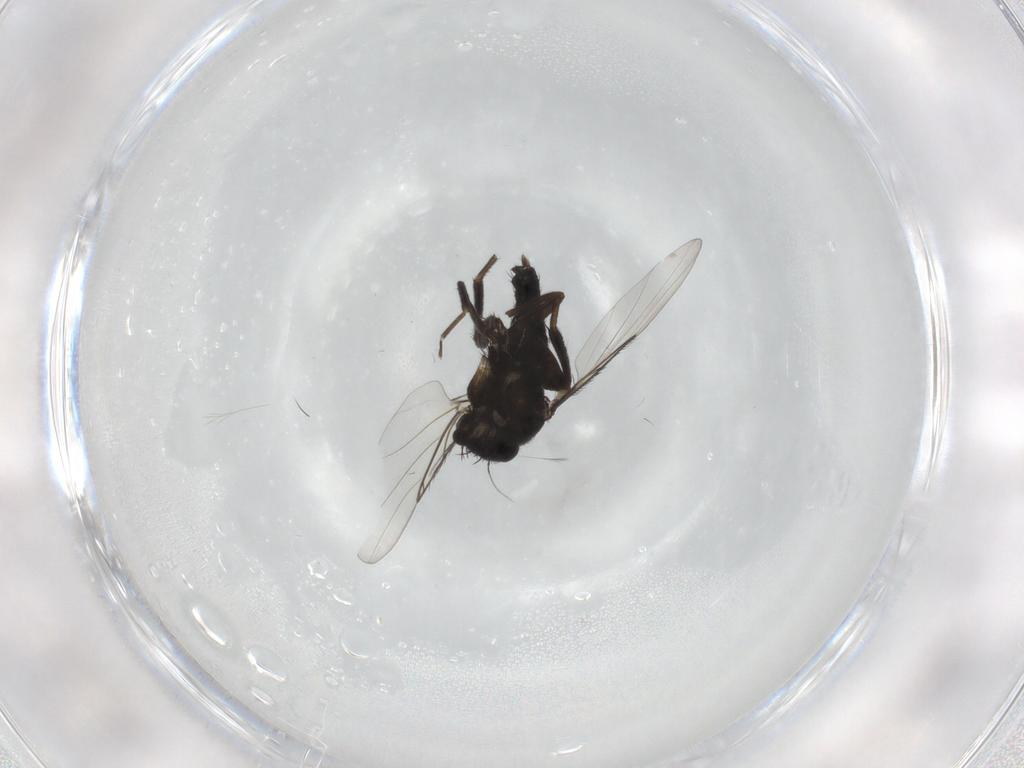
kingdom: Animalia
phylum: Arthropoda
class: Insecta
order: Diptera
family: Phoridae
